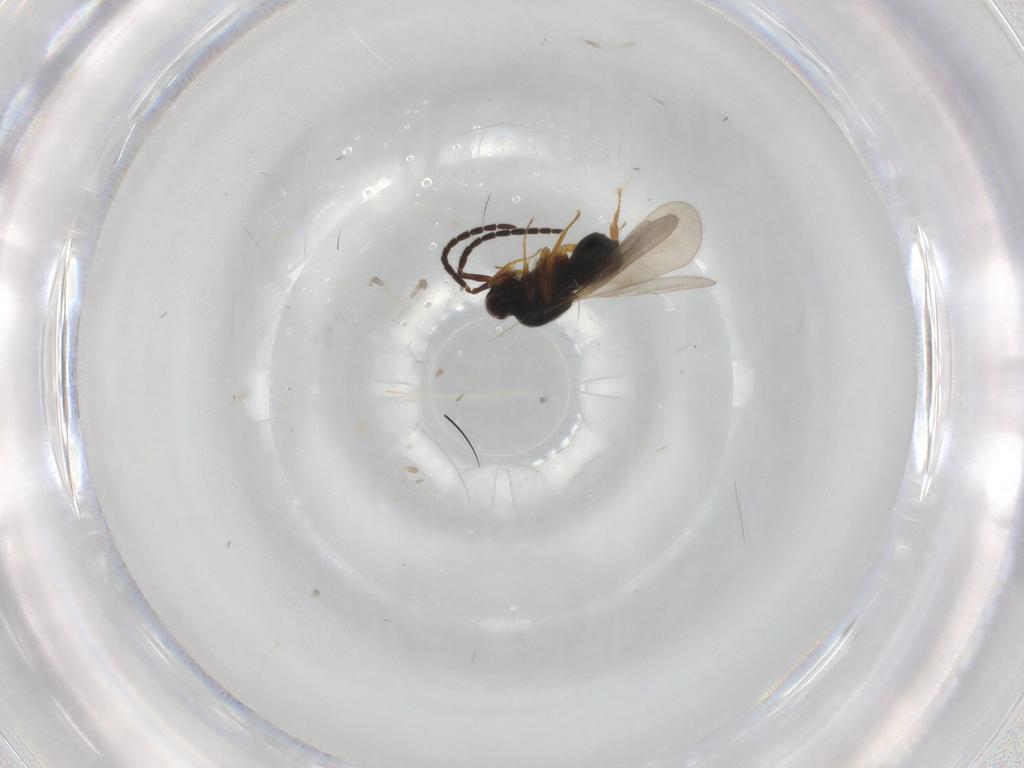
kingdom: Animalia
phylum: Arthropoda
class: Insecta
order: Hymenoptera
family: Ceraphronidae
